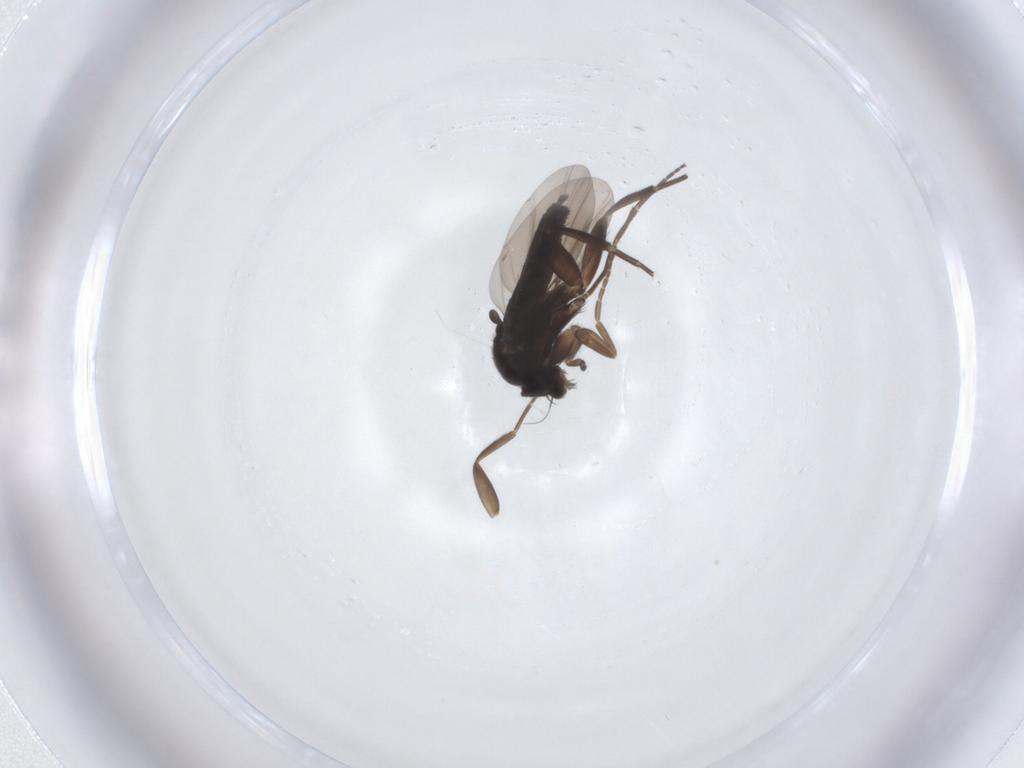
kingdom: Animalia
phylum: Arthropoda
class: Insecta
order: Diptera
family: Phoridae
